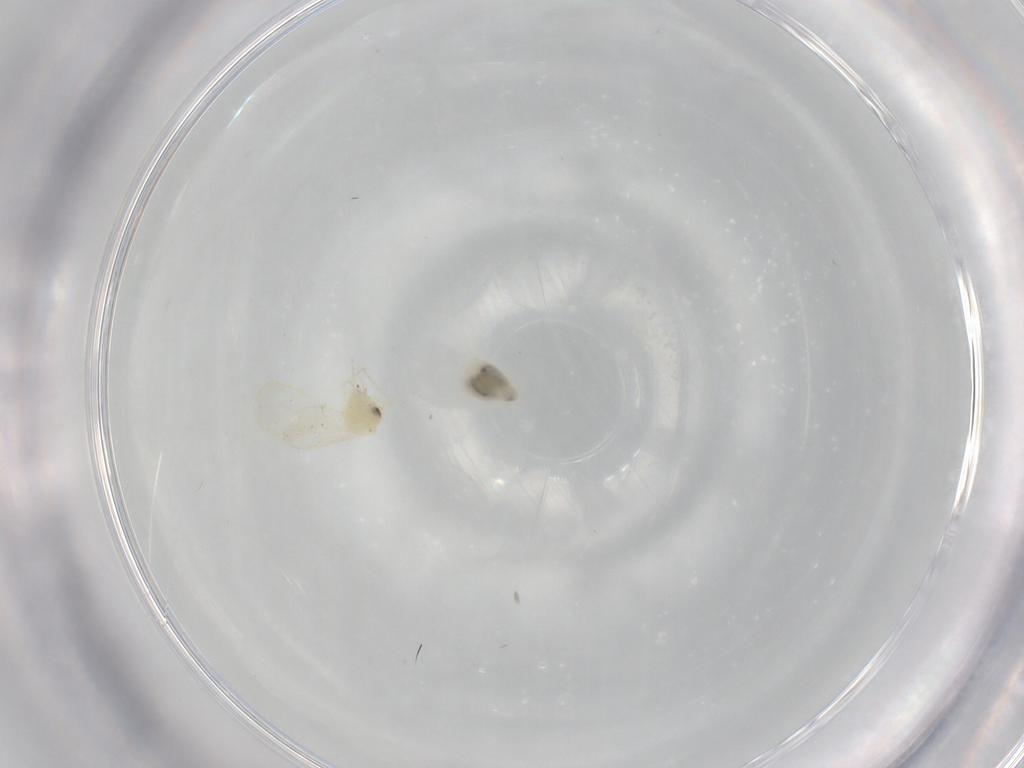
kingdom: Animalia
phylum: Arthropoda
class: Insecta
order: Hemiptera
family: Aleyrodidae
